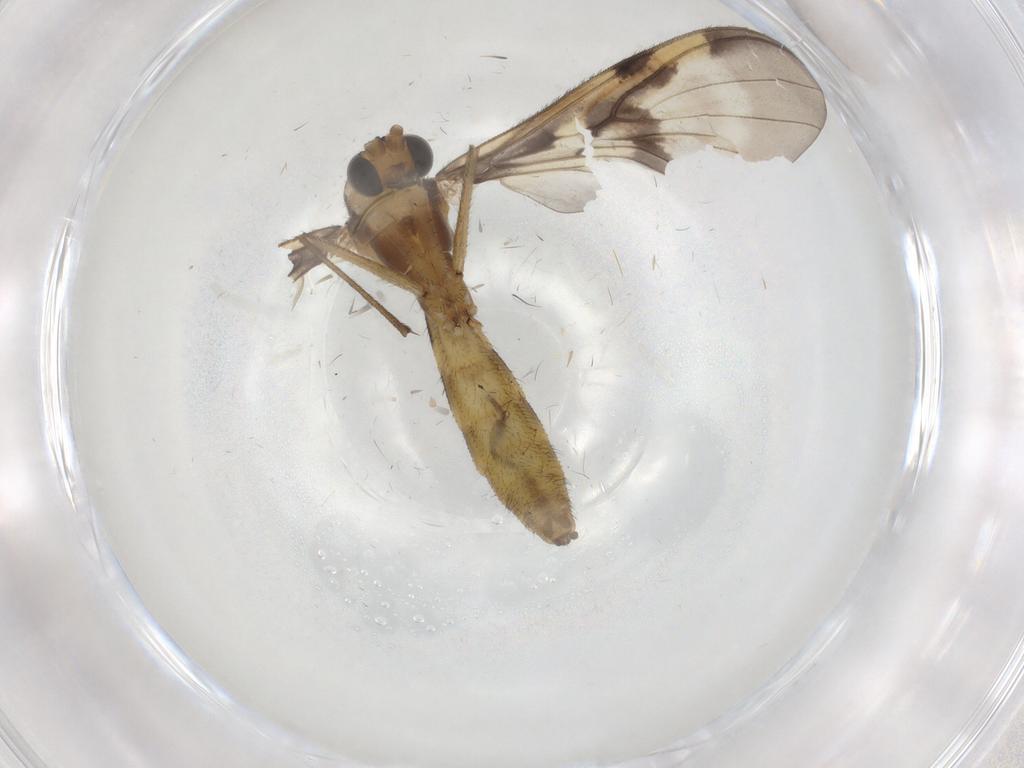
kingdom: Animalia
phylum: Arthropoda
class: Insecta
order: Diptera
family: Keroplatidae
